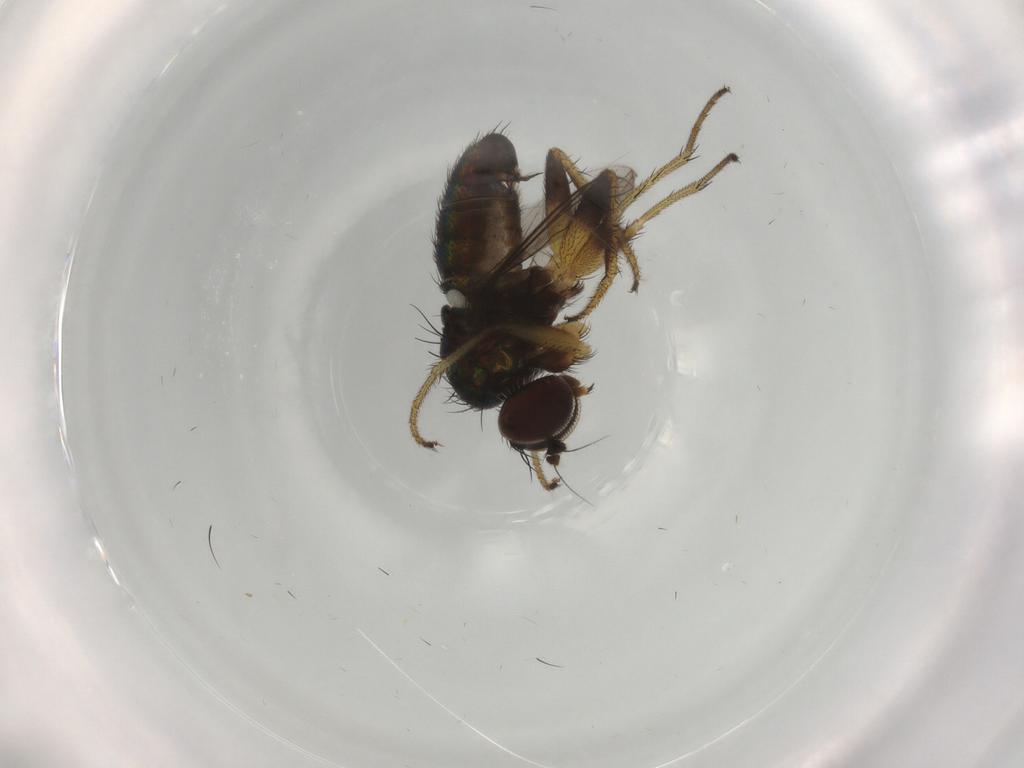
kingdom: Animalia
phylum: Arthropoda
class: Insecta
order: Diptera
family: Dolichopodidae
